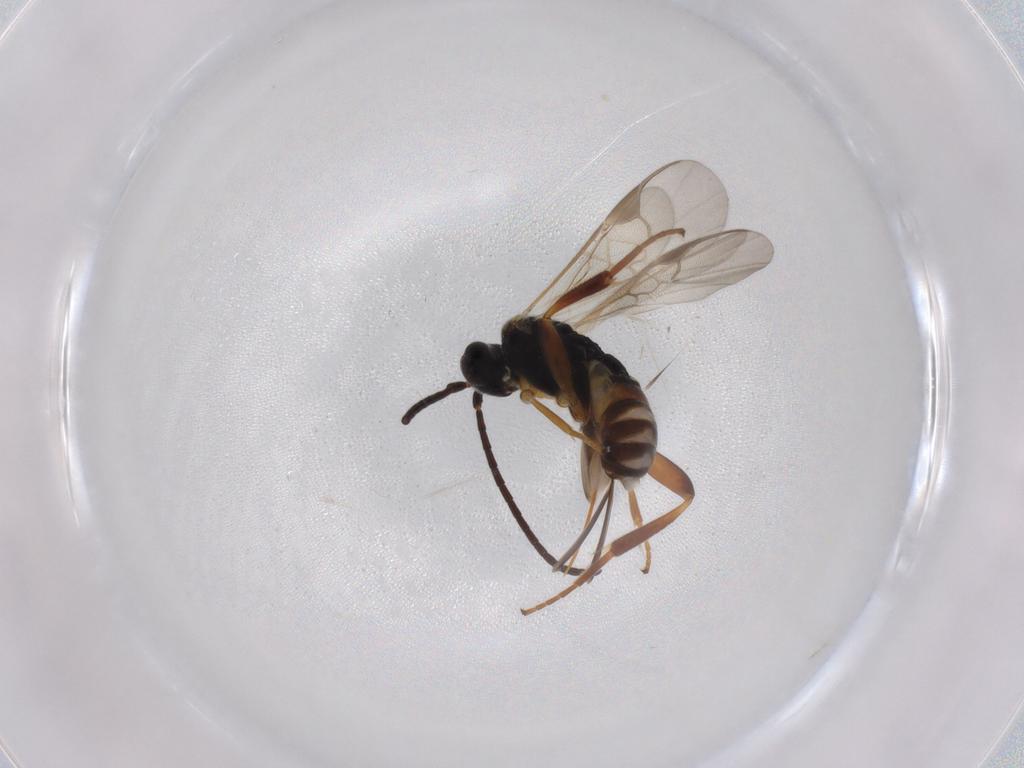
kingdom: Animalia
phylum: Arthropoda
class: Insecta
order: Hymenoptera
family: Braconidae
